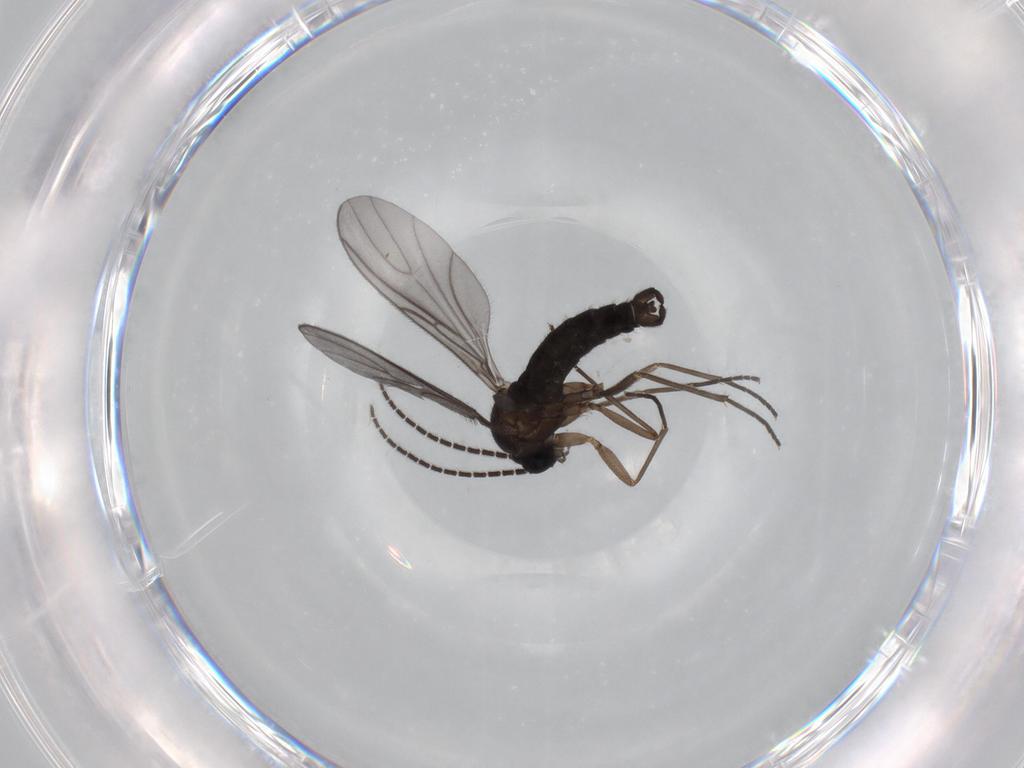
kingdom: Animalia
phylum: Arthropoda
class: Insecta
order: Diptera
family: Sciaridae
